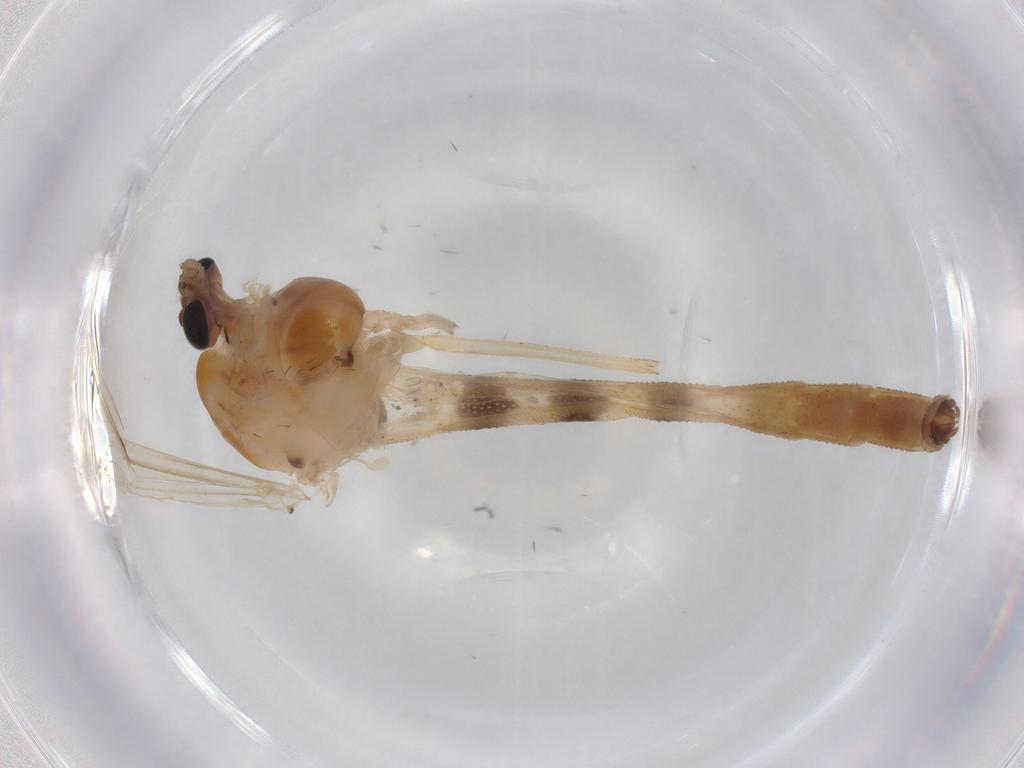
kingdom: Animalia
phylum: Arthropoda
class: Insecta
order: Diptera
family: Chironomidae
